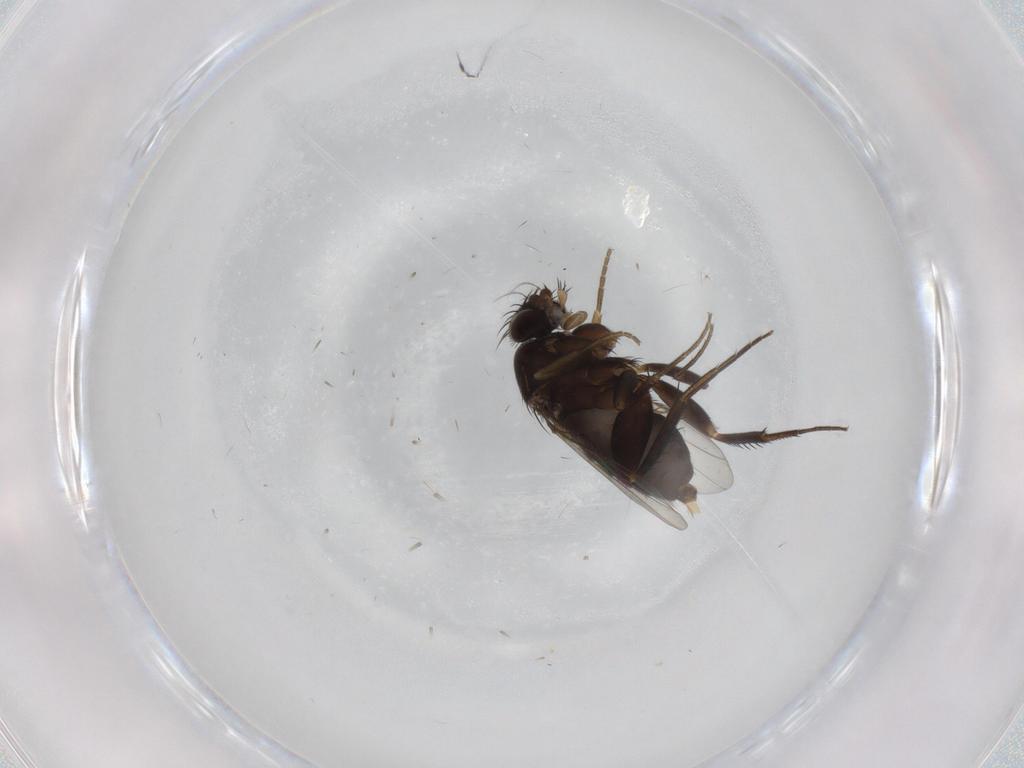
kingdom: Animalia
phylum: Arthropoda
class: Insecta
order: Diptera
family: Phoridae
